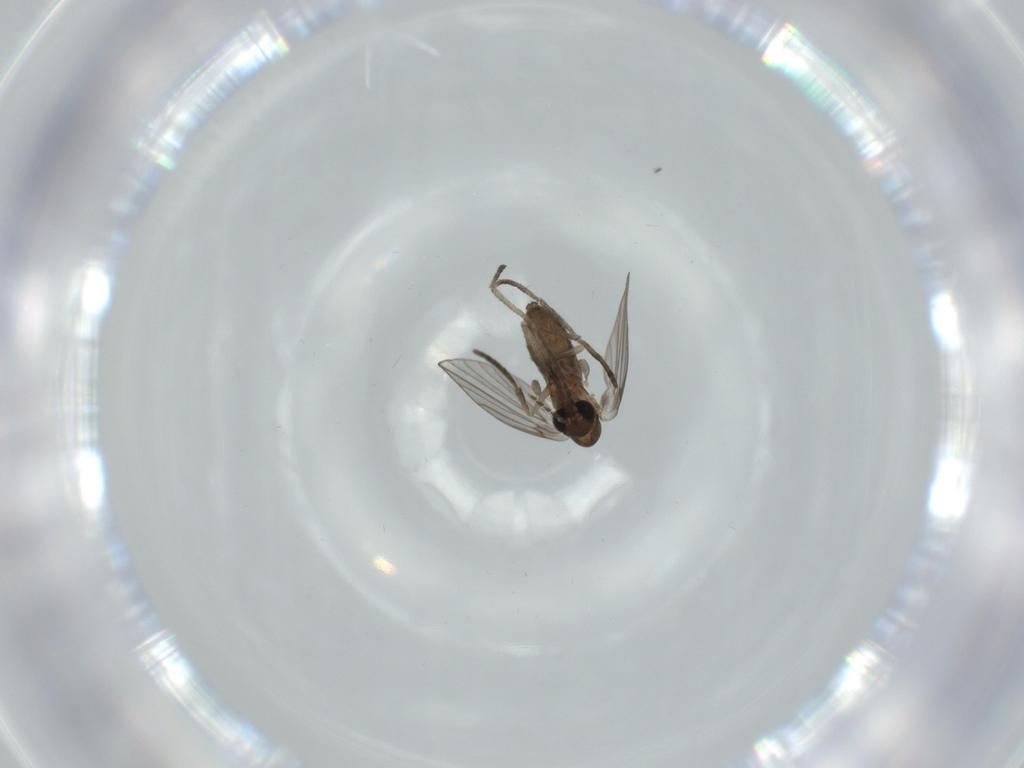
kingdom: Animalia
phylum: Arthropoda
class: Insecta
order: Diptera
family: Psychodidae
